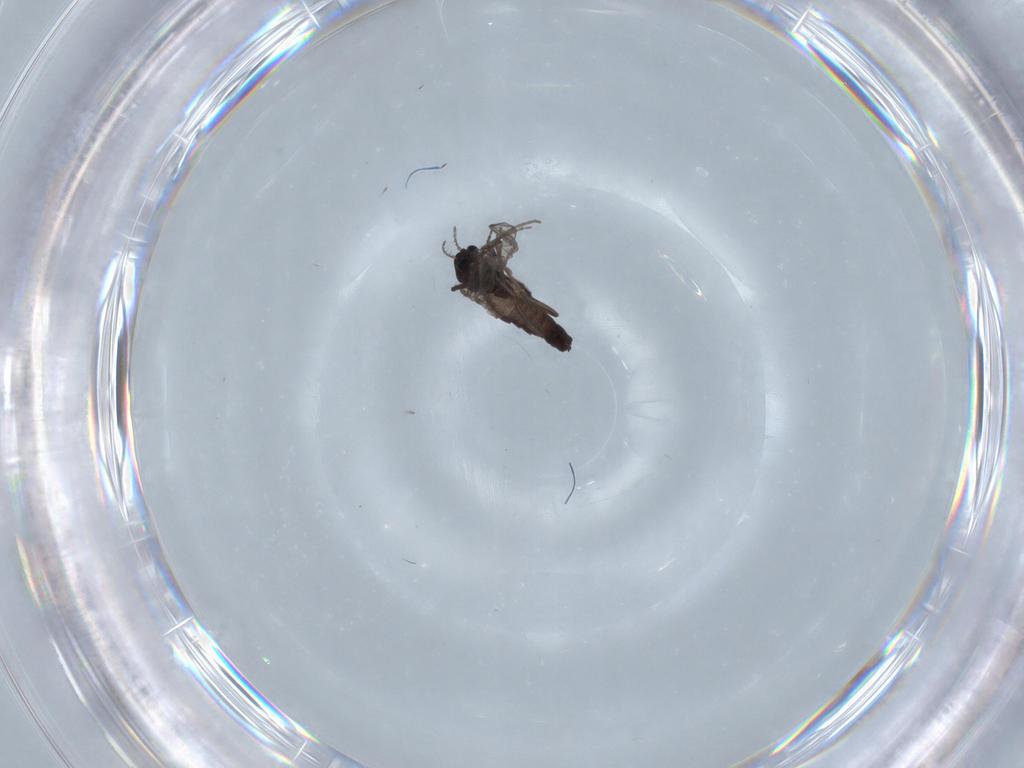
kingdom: Animalia
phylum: Arthropoda
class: Insecta
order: Diptera
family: Chironomidae
